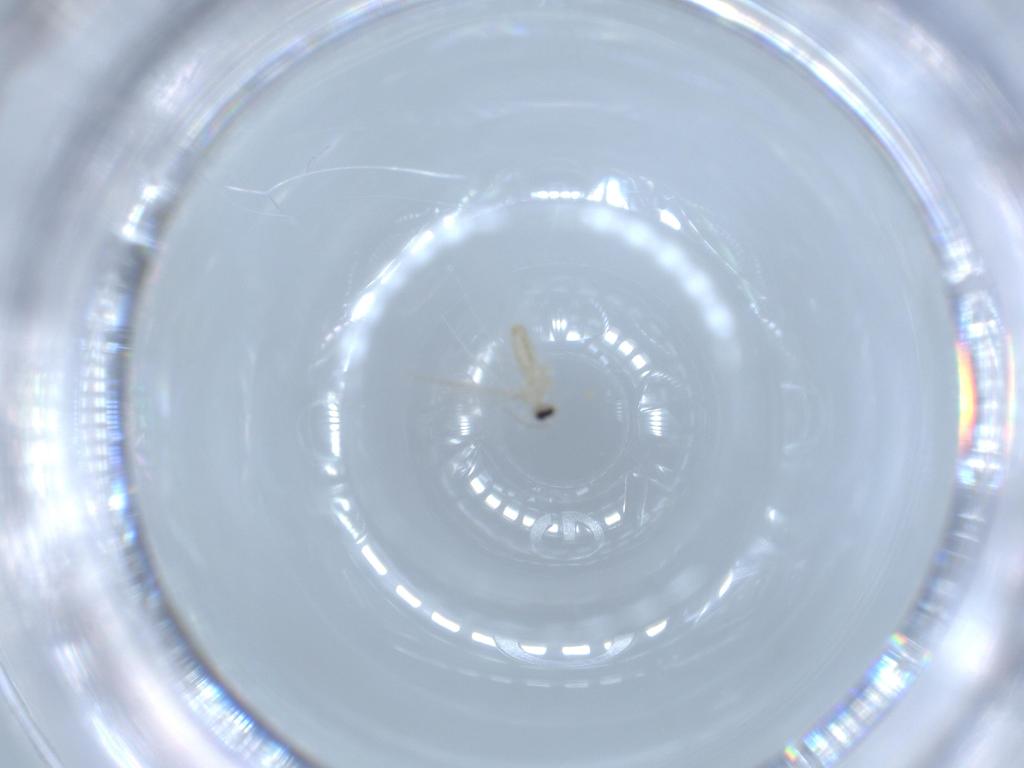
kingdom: Animalia
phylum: Arthropoda
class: Insecta
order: Diptera
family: Cecidomyiidae
